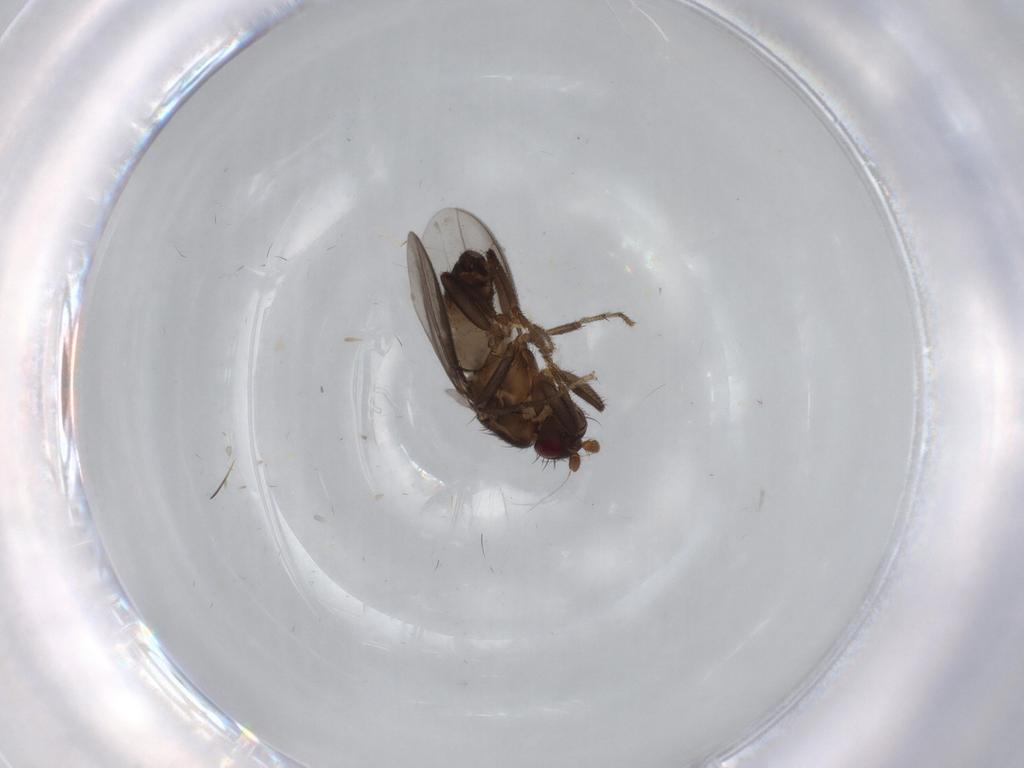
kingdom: Animalia
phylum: Arthropoda
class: Insecta
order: Diptera
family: Sphaeroceridae
